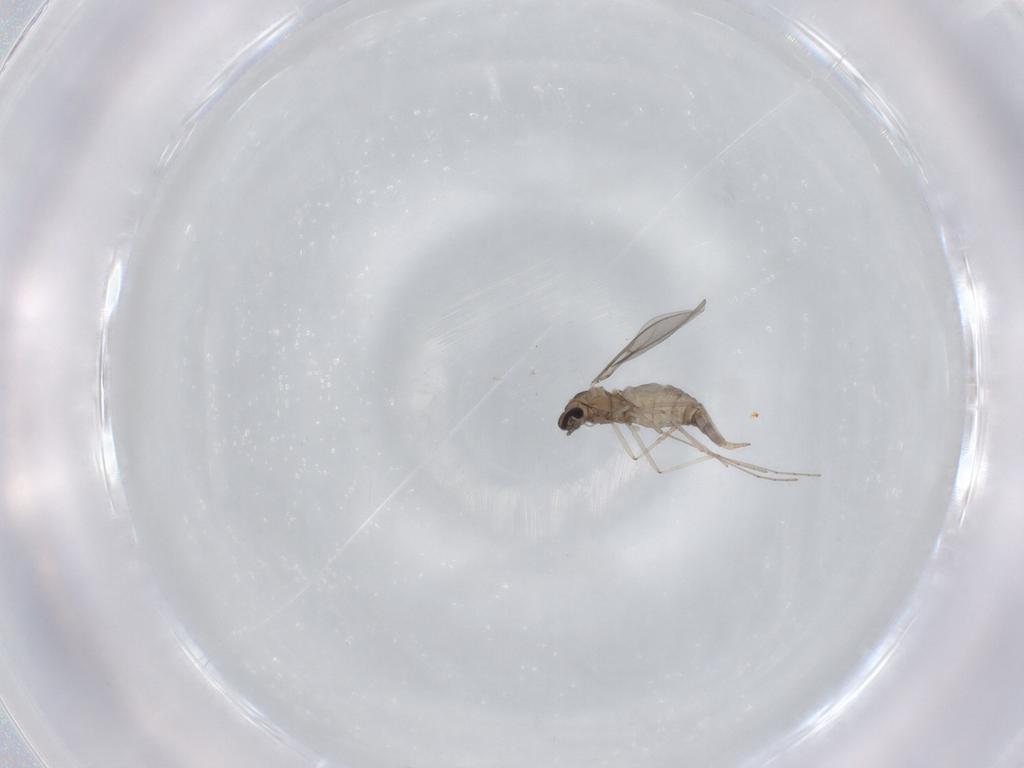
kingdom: Animalia
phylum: Arthropoda
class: Insecta
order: Diptera
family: Cecidomyiidae
